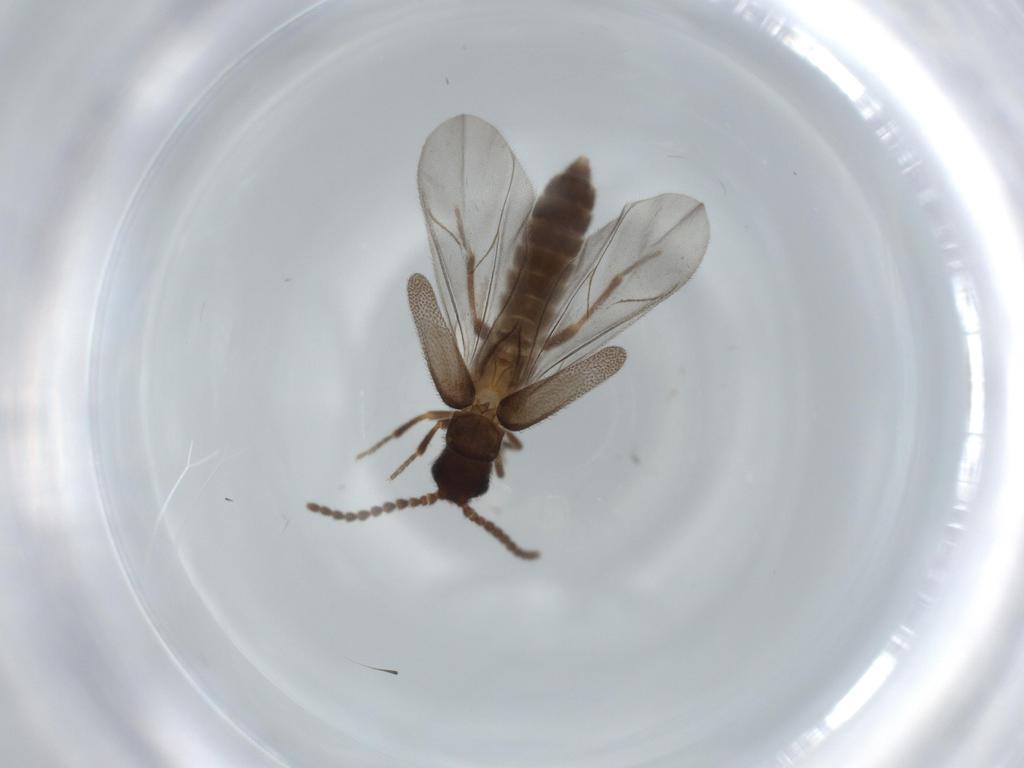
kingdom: Animalia
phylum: Arthropoda
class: Insecta
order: Coleoptera
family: Omethidae
